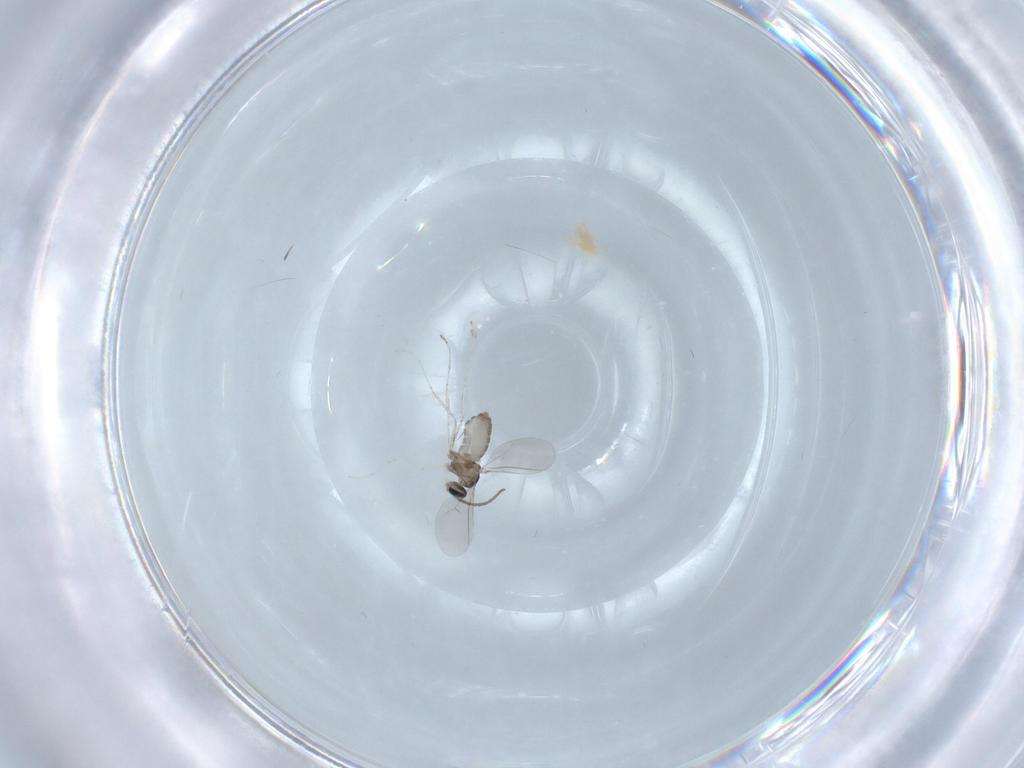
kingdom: Animalia
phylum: Arthropoda
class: Insecta
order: Diptera
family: Cecidomyiidae
